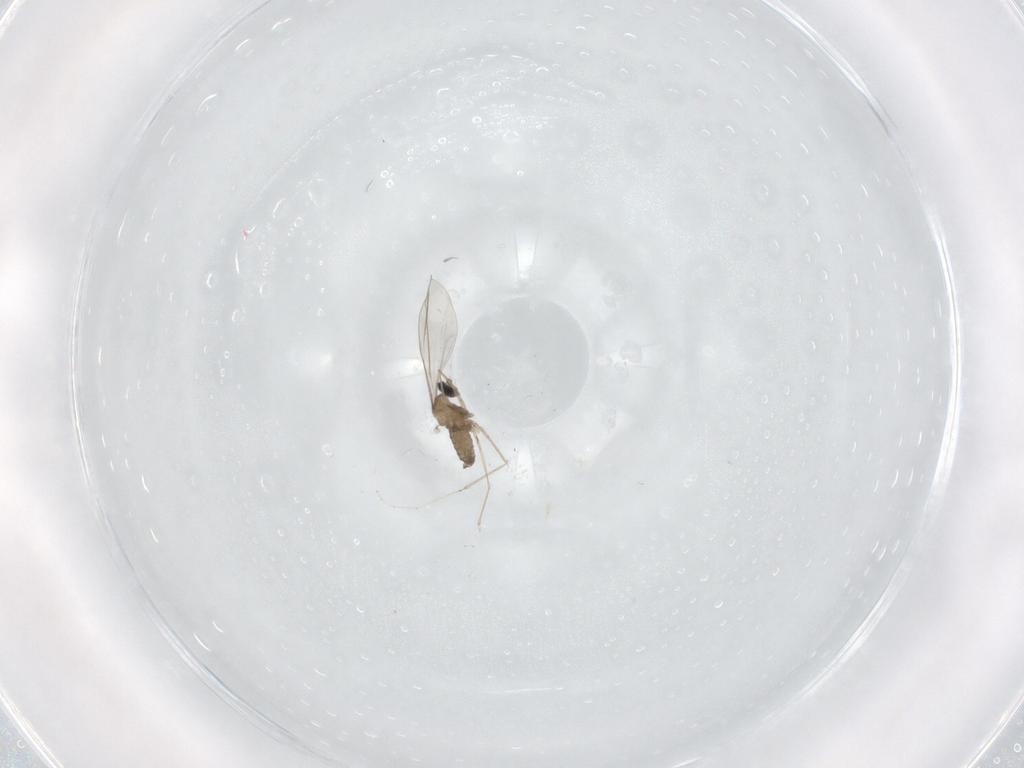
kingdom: Animalia
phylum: Arthropoda
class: Insecta
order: Diptera
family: Cecidomyiidae
